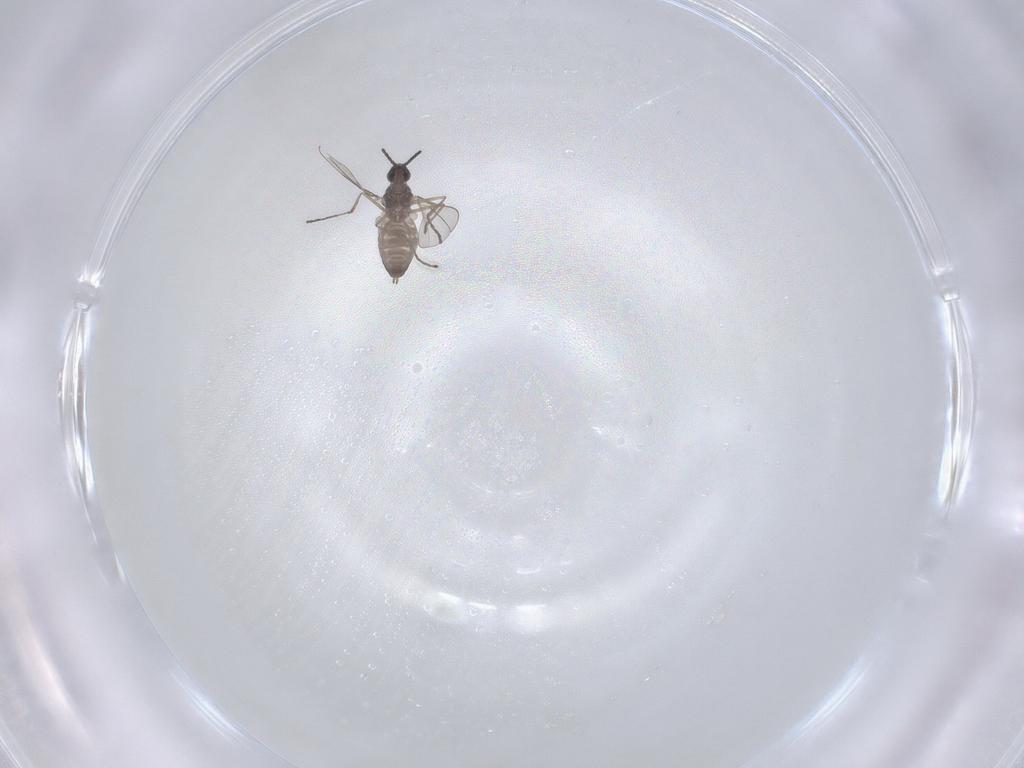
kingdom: Animalia
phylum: Arthropoda
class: Insecta
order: Diptera
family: Cecidomyiidae
